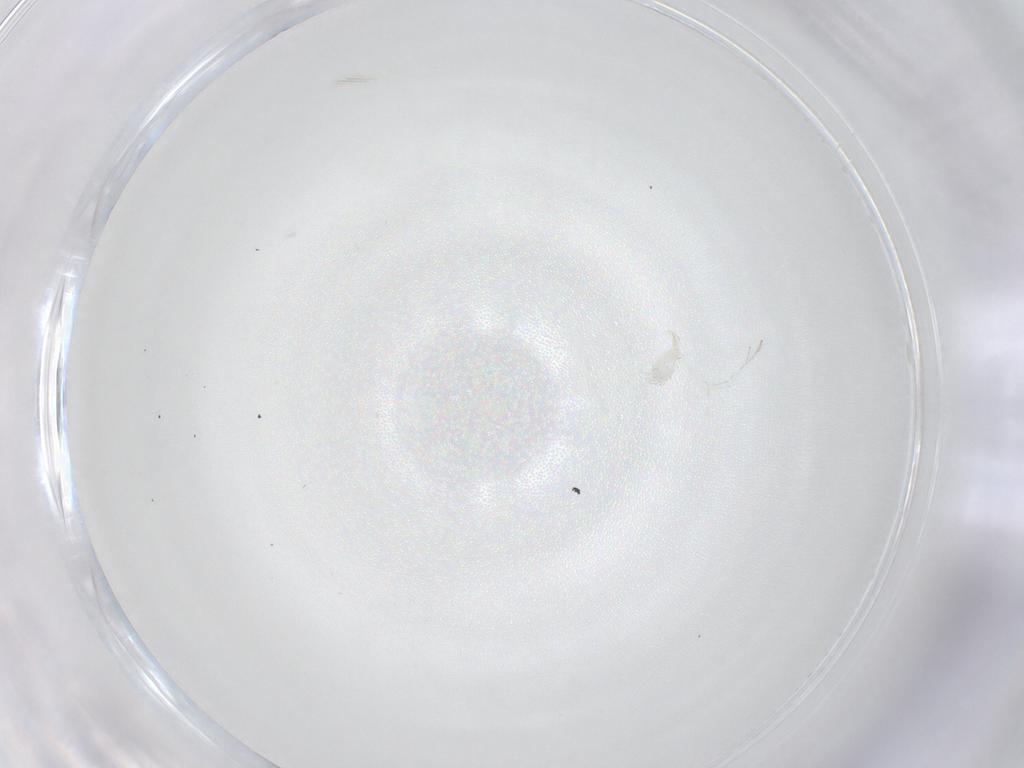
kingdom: Animalia
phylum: Arthropoda
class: Arachnida
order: Trombidiformes
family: Smarididae
